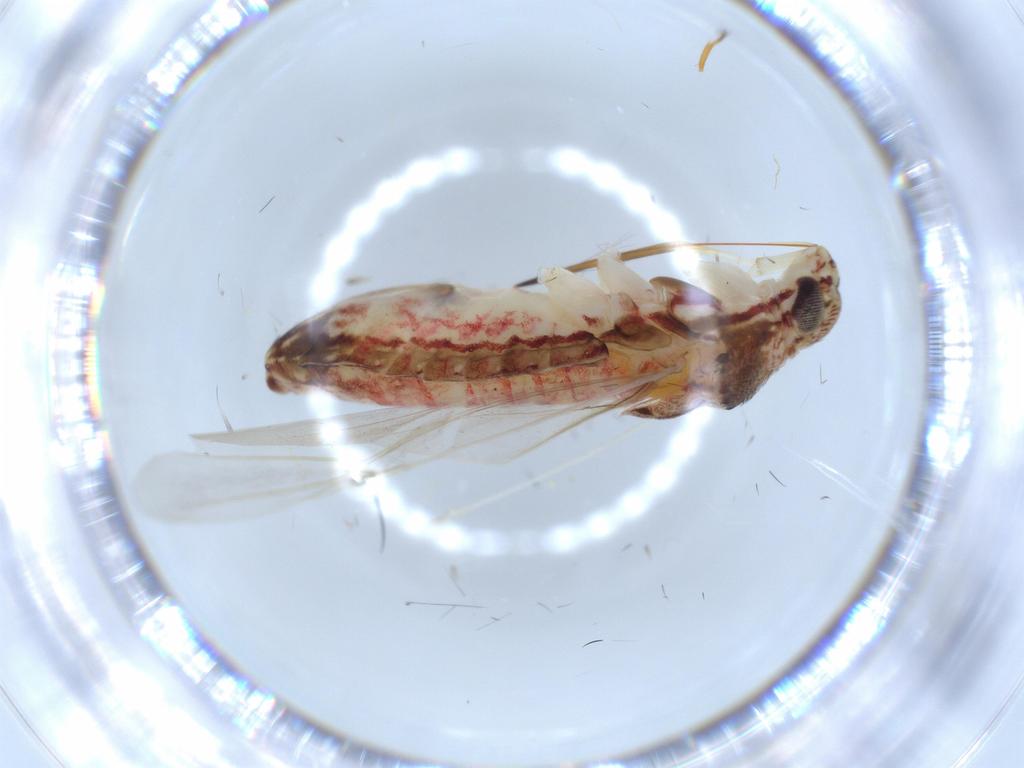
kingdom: Animalia
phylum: Arthropoda
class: Insecta
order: Hemiptera
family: Miridae
